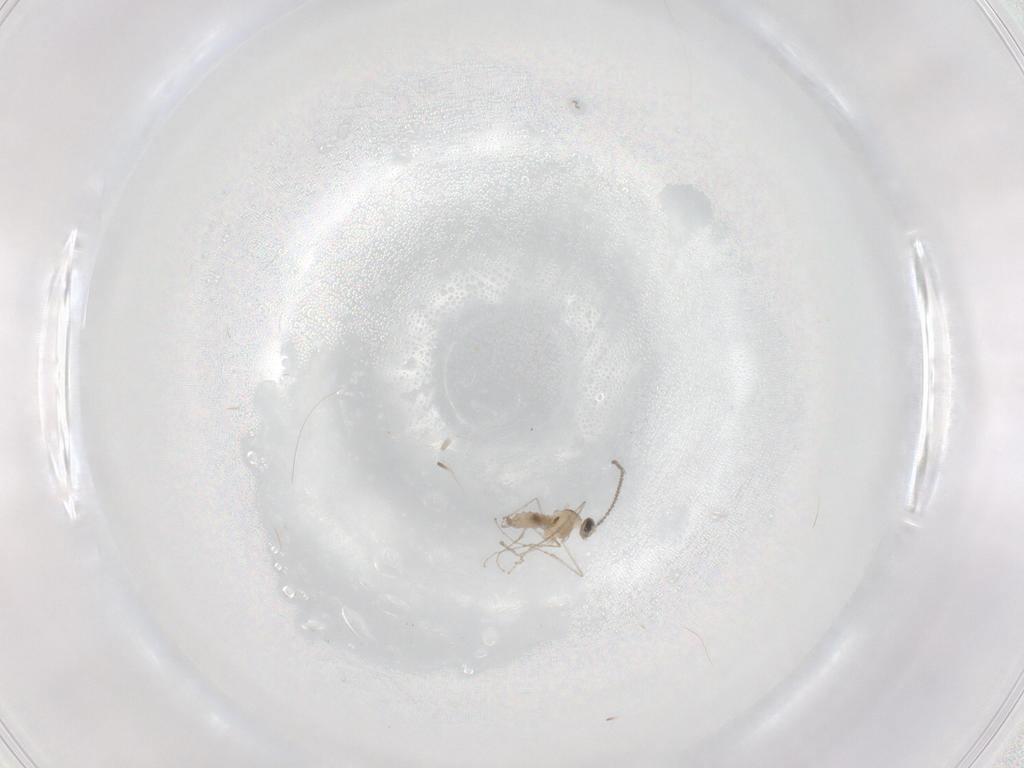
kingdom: Animalia
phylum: Arthropoda
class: Insecta
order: Diptera
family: Cecidomyiidae
